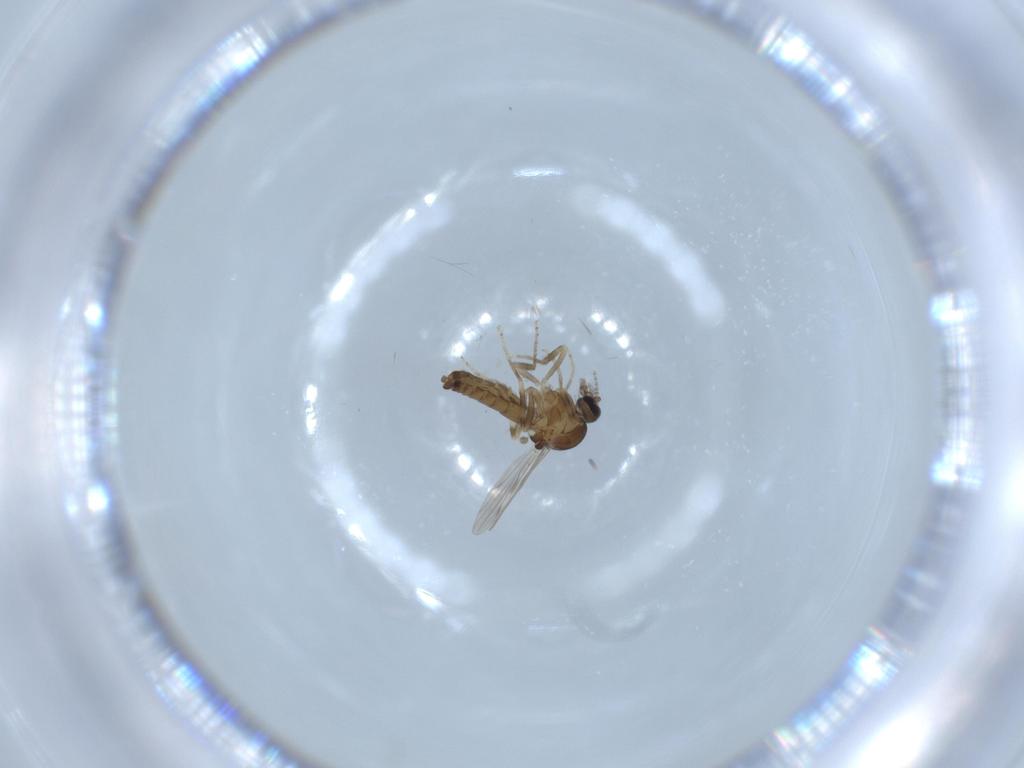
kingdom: Animalia
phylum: Arthropoda
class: Insecta
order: Diptera
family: Ceratopogonidae
